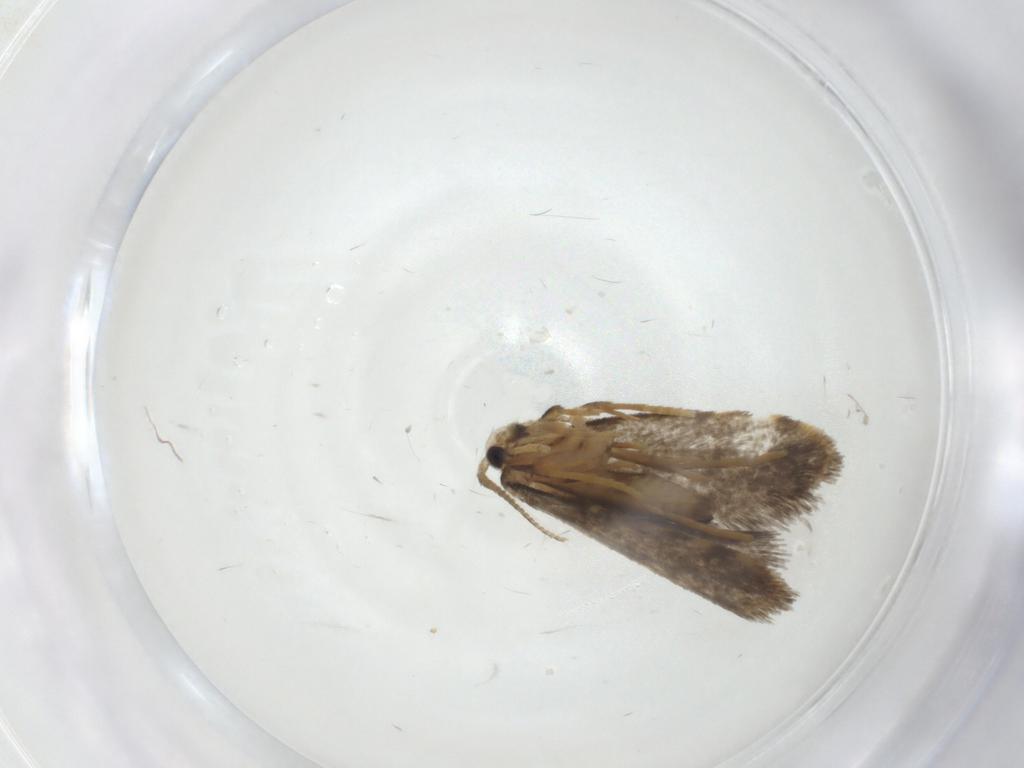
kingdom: Animalia
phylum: Arthropoda
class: Insecta
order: Lepidoptera
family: Psychidae
